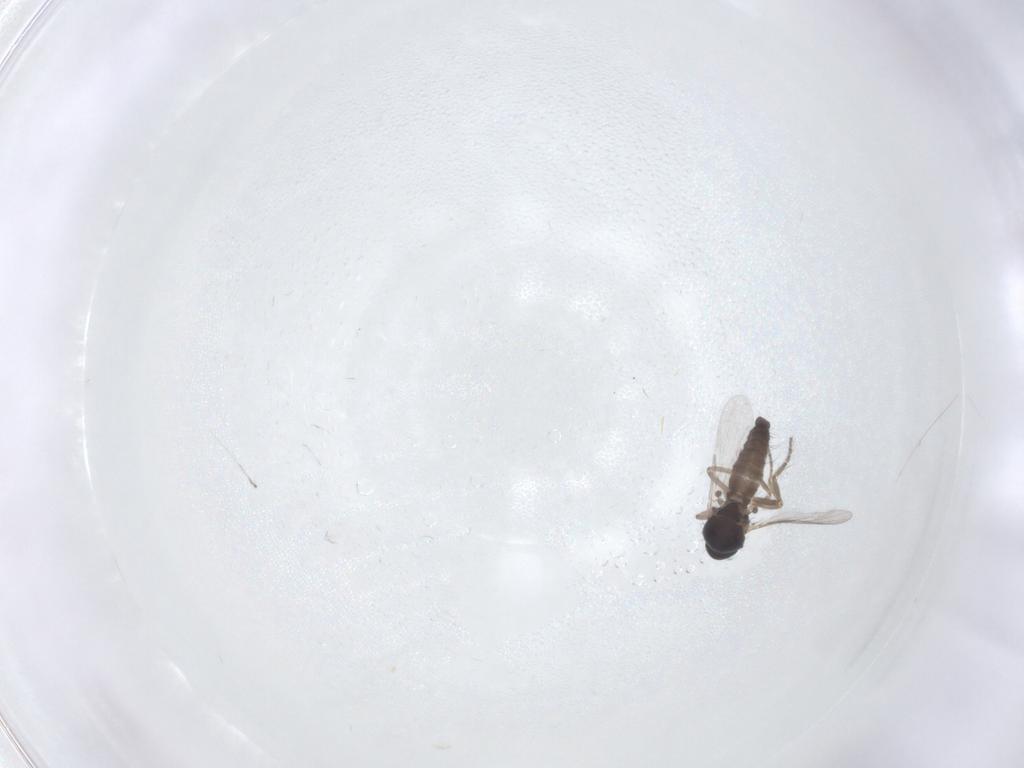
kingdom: Animalia
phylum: Arthropoda
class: Insecta
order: Diptera
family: Ceratopogonidae
